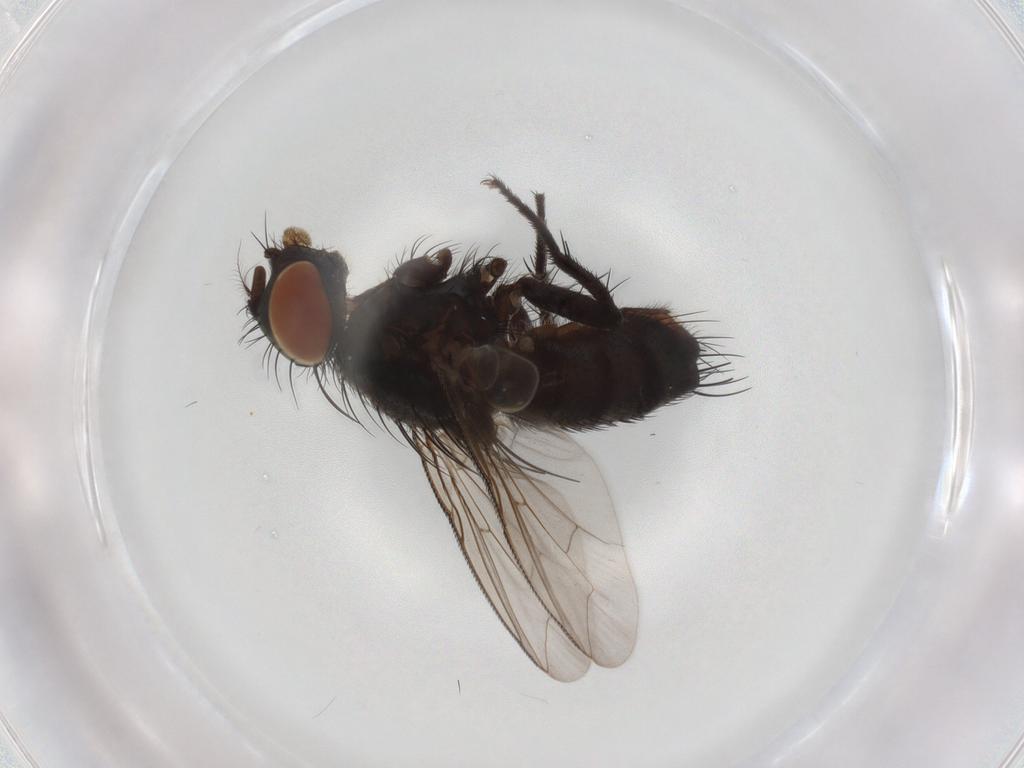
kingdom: Animalia
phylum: Arthropoda
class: Insecta
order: Diptera
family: Sarcophagidae
